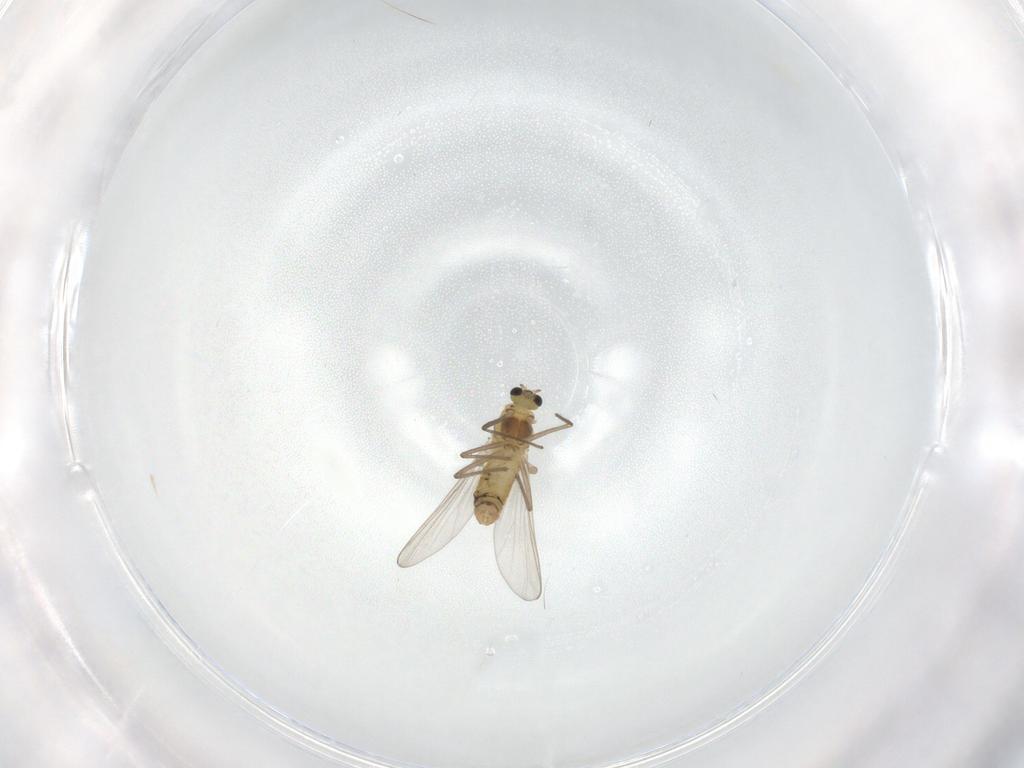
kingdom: Animalia
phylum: Arthropoda
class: Insecta
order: Diptera
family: Chironomidae
